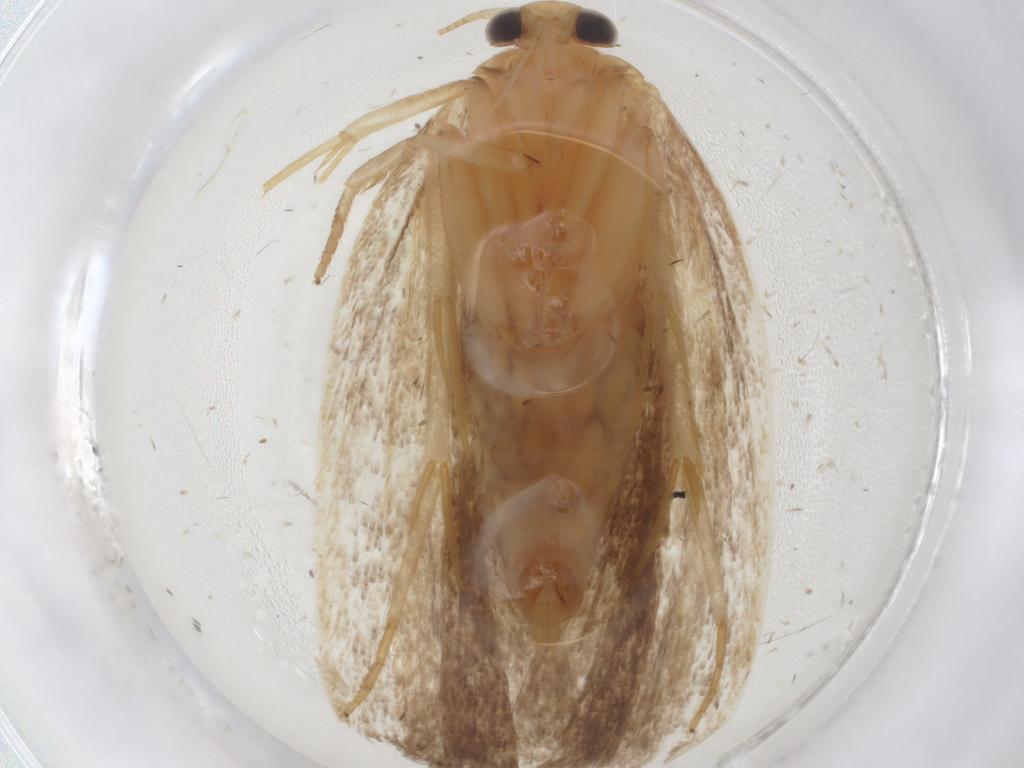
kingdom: Animalia
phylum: Arthropoda
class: Insecta
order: Lepidoptera
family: Depressariidae
